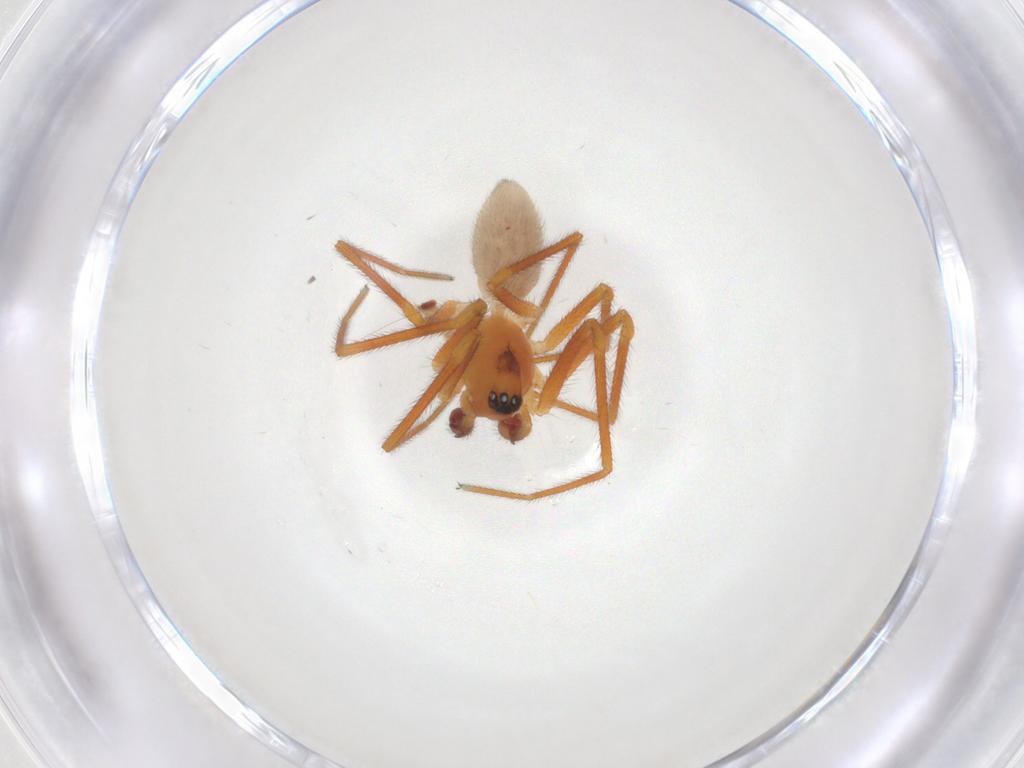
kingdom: Animalia
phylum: Arthropoda
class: Arachnida
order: Araneae
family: Linyphiidae
